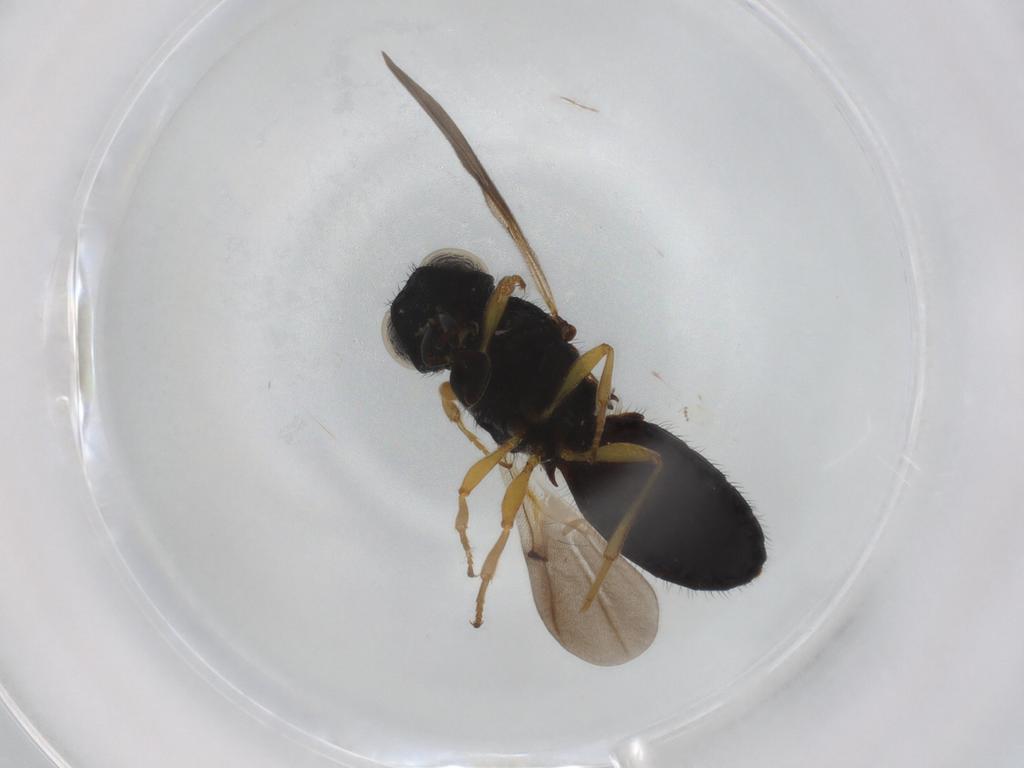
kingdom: Animalia
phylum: Arthropoda
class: Insecta
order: Hymenoptera
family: Scelionidae
